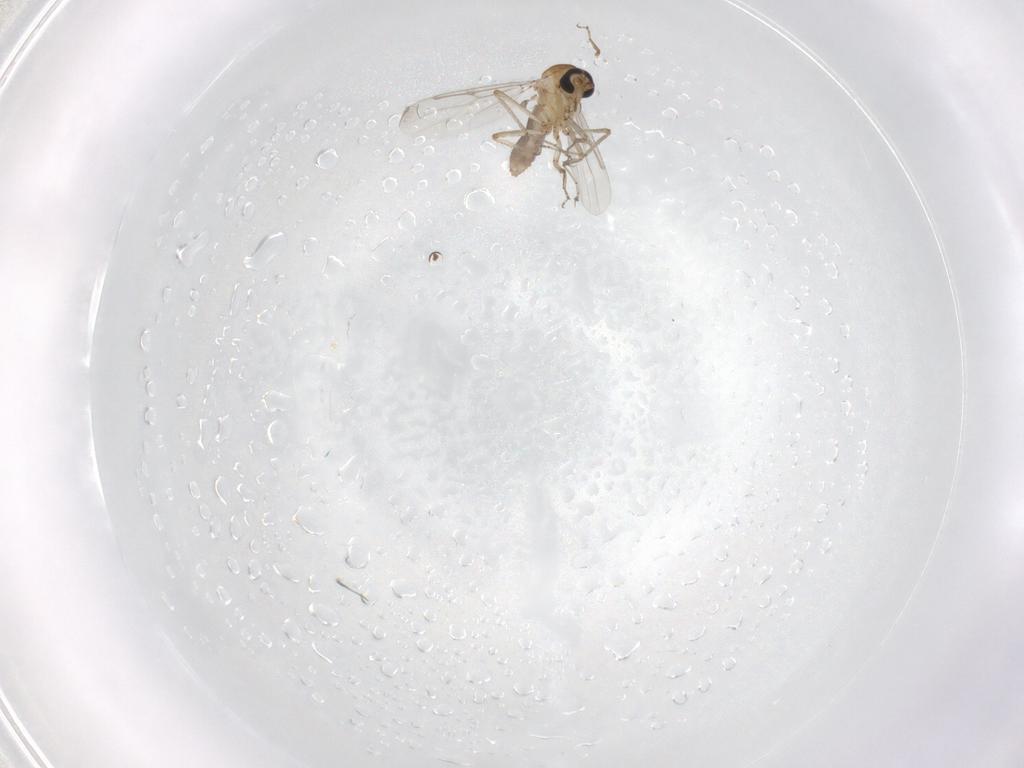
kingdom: Animalia
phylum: Arthropoda
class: Insecta
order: Diptera
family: Ceratopogonidae
